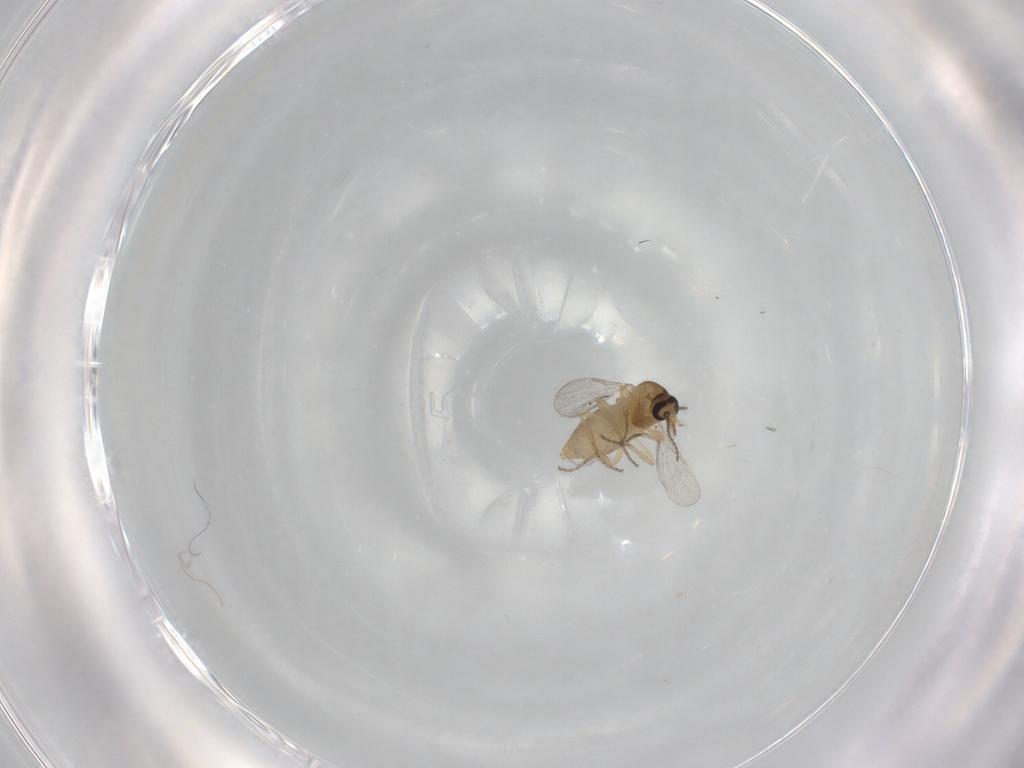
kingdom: Animalia
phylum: Arthropoda
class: Insecta
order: Diptera
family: Ceratopogonidae
